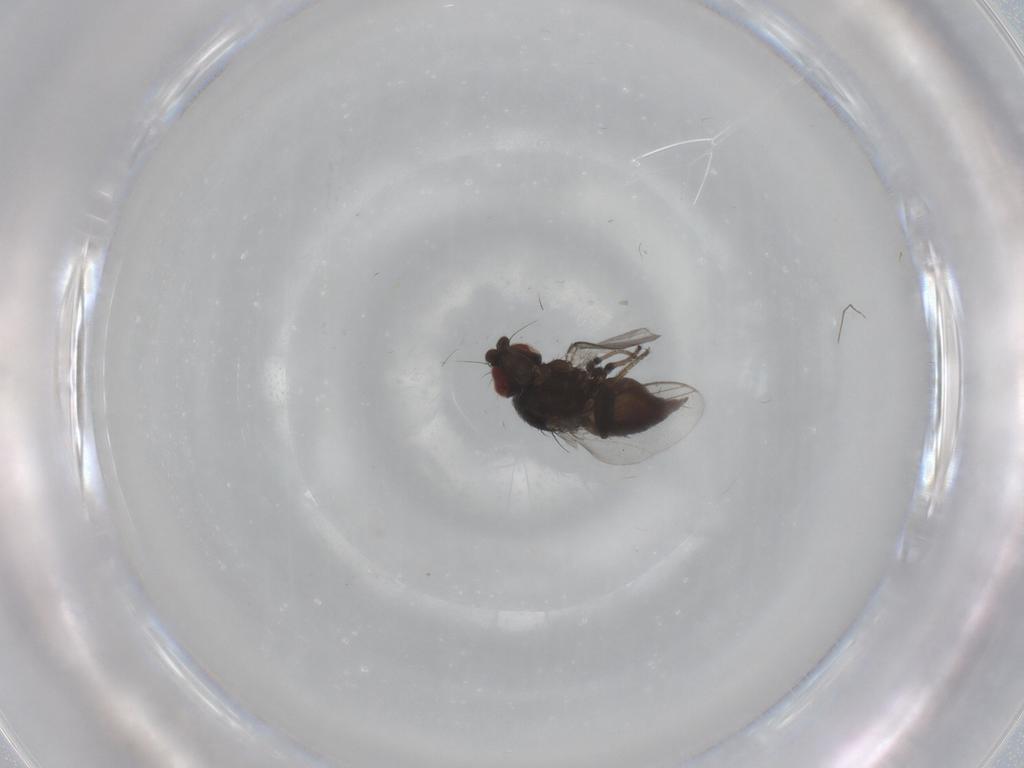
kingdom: Animalia
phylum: Arthropoda
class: Insecta
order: Diptera
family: Milichiidae
